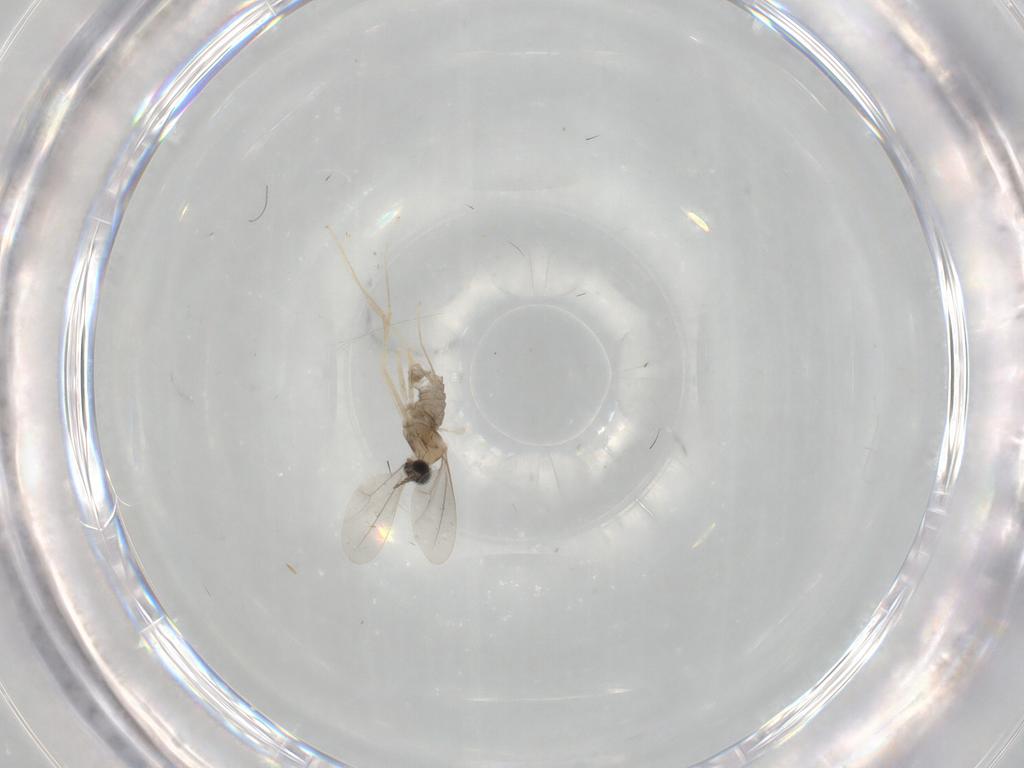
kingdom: Animalia
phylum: Arthropoda
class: Insecta
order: Diptera
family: Cecidomyiidae
